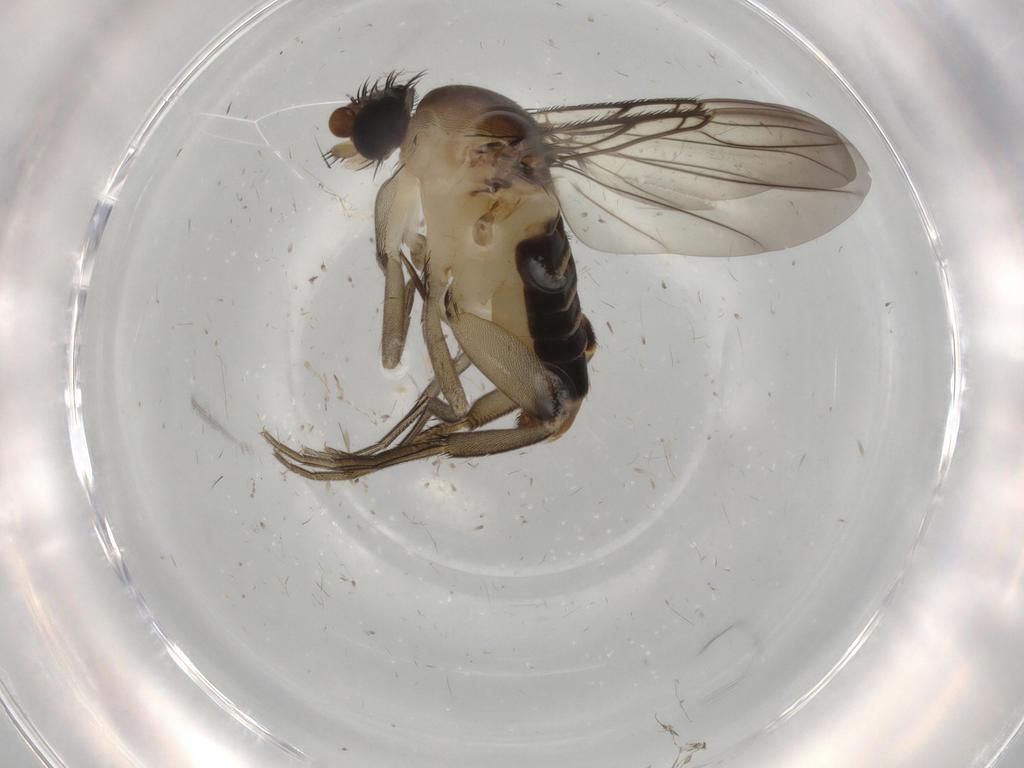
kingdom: Animalia
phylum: Arthropoda
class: Insecta
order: Diptera
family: Phoridae
